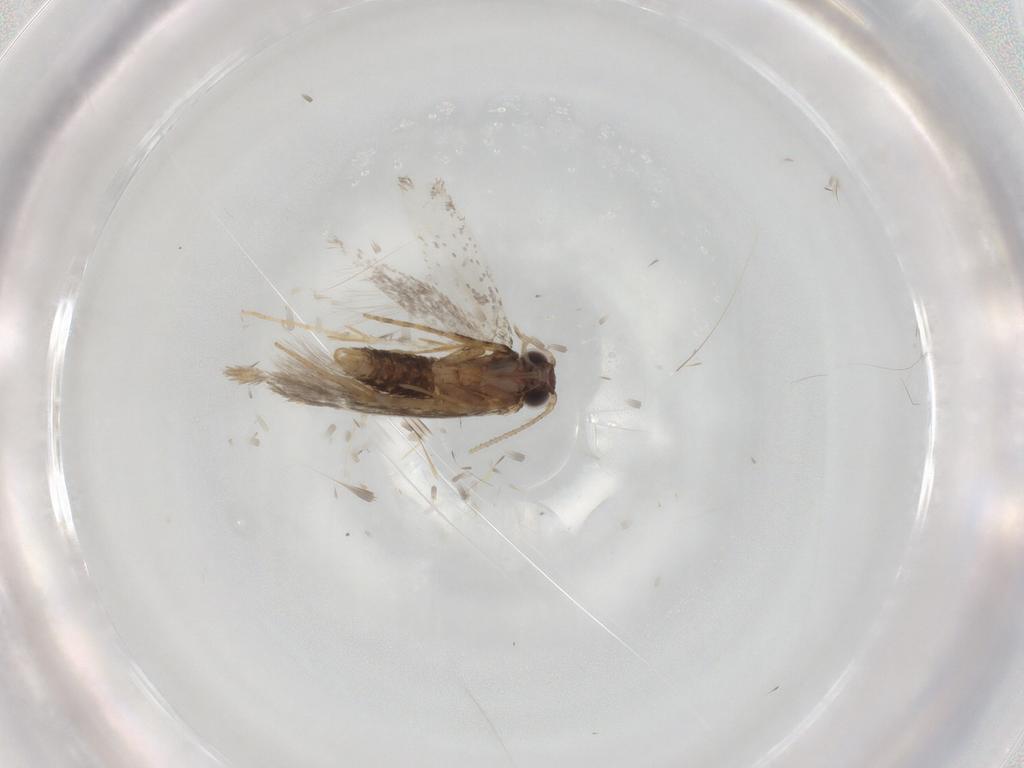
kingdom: Animalia
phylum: Arthropoda
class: Insecta
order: Lepidoptera
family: Tineidae
